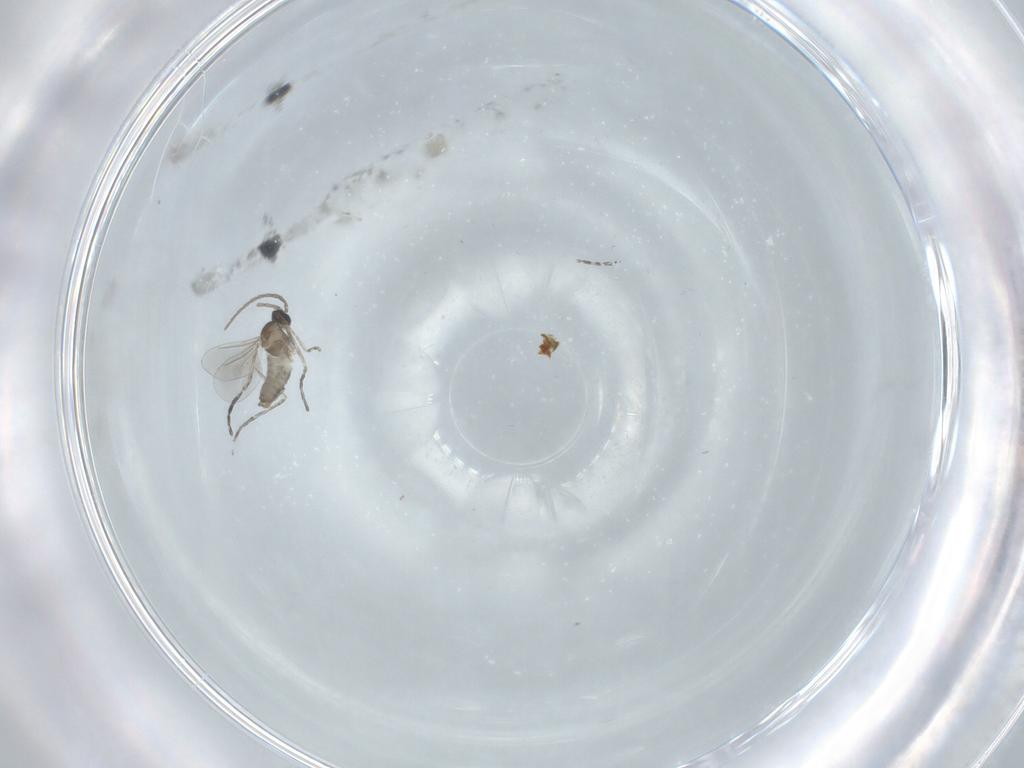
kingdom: Animalia
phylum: Arthropoda
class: Insecta
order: Diptera
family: Cecidomyiidae
